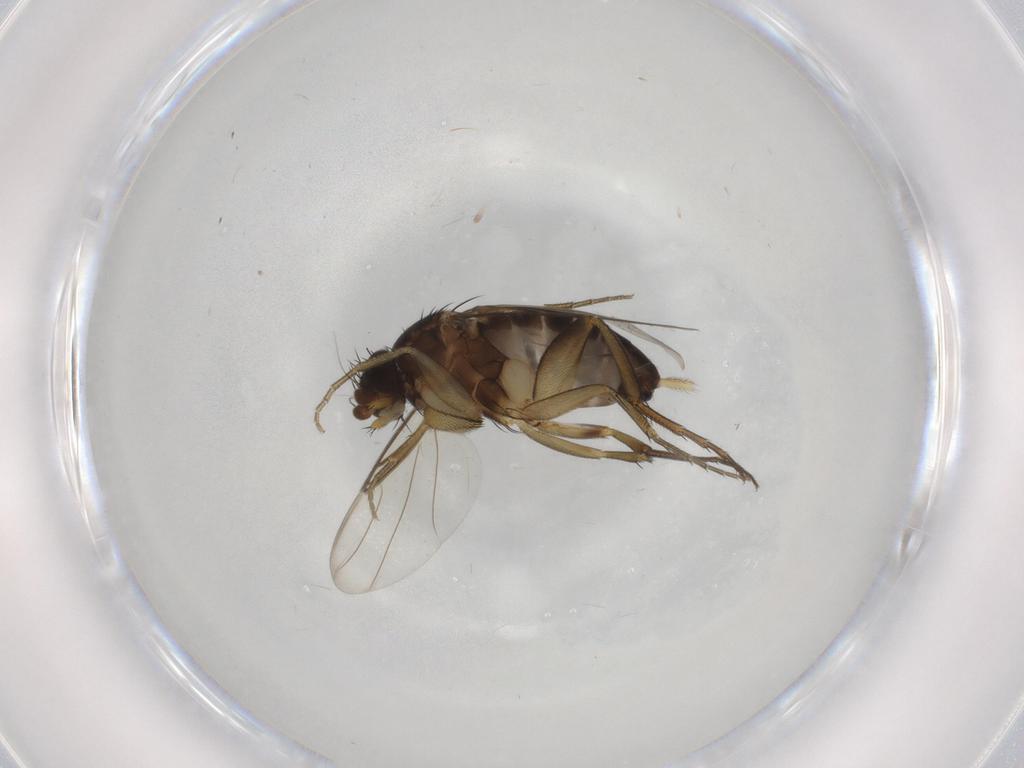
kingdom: Animalia
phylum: Arthropoda
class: Insecta
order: Diptera
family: Phoridae
